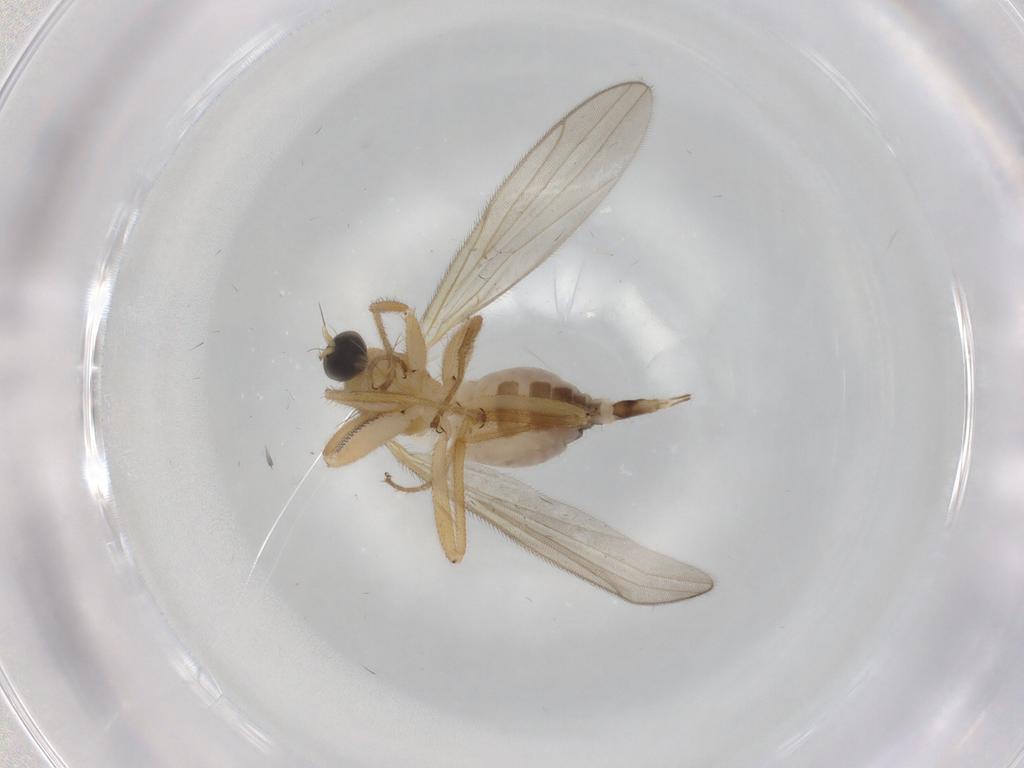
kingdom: Animalia
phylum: Arthropoda
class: Insecta
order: Diptera
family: Hybotidae
